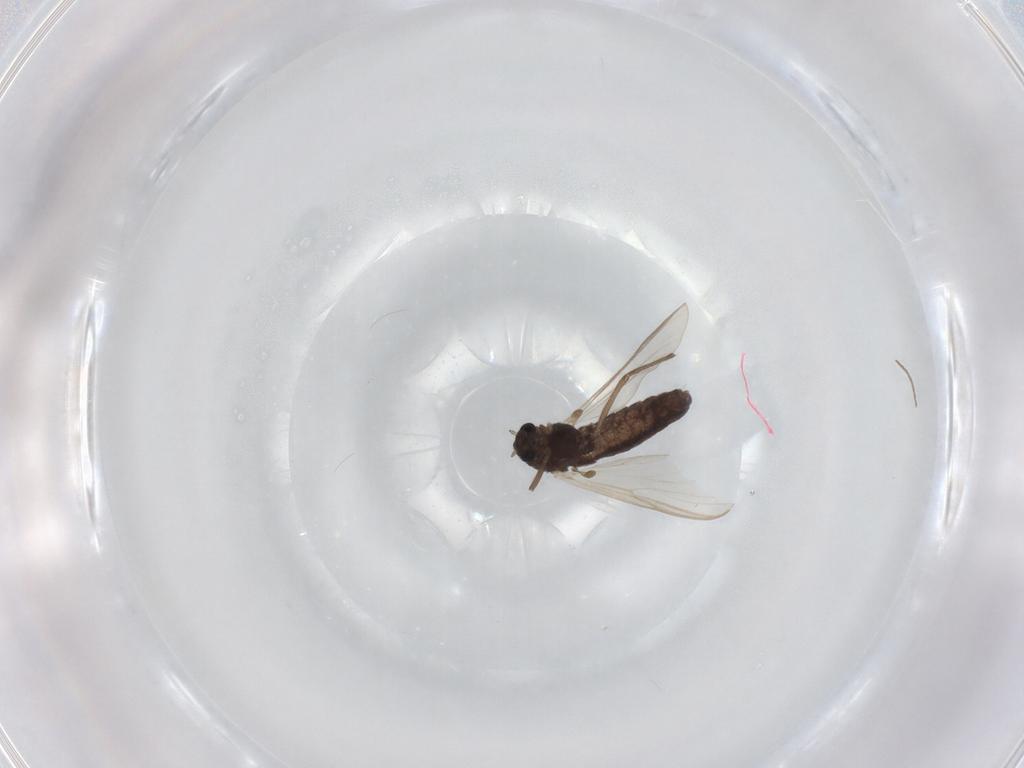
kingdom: Animalia
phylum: Arthropoda
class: Insecta
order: Diptera
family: Chironomidae
